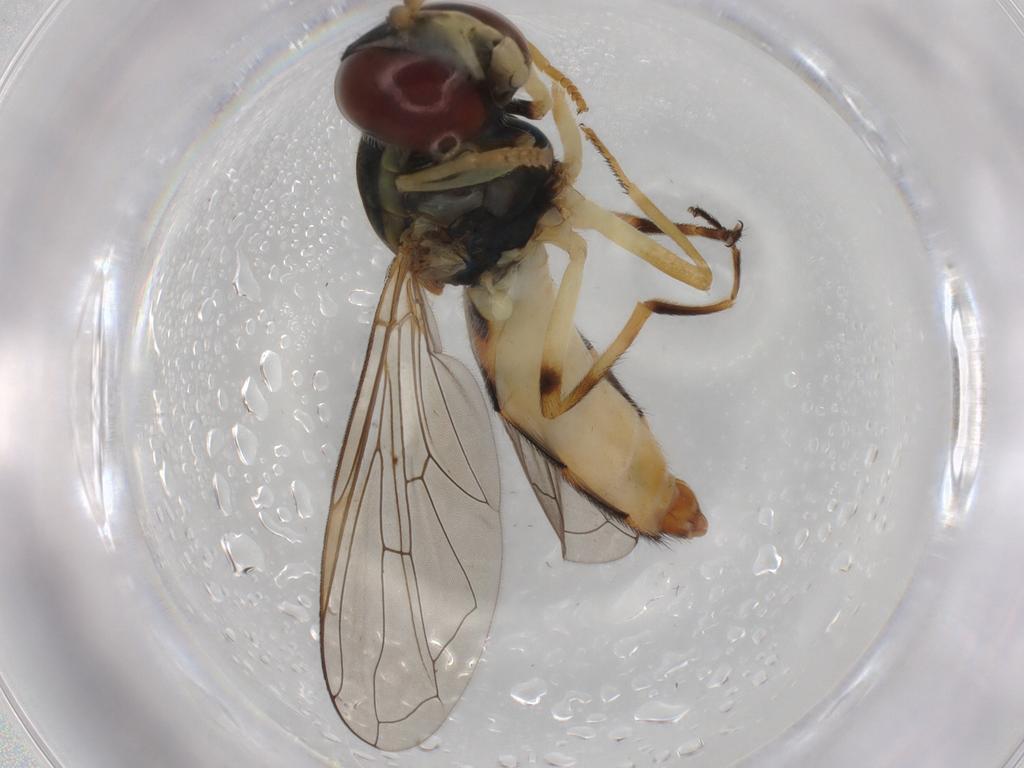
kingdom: Animalia
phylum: Arthropoda
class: Insecta
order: Diptera
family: Syrphidae
